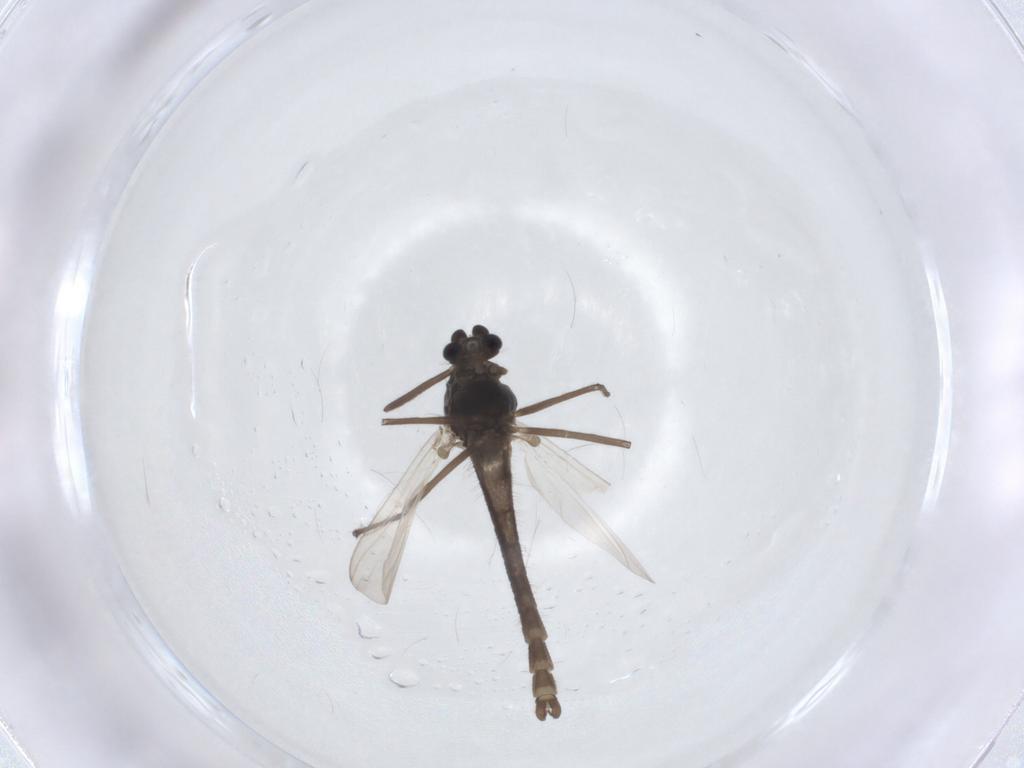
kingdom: Animalia
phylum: Arthropoda
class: Insecta
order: Diptera
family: Chironomidae
